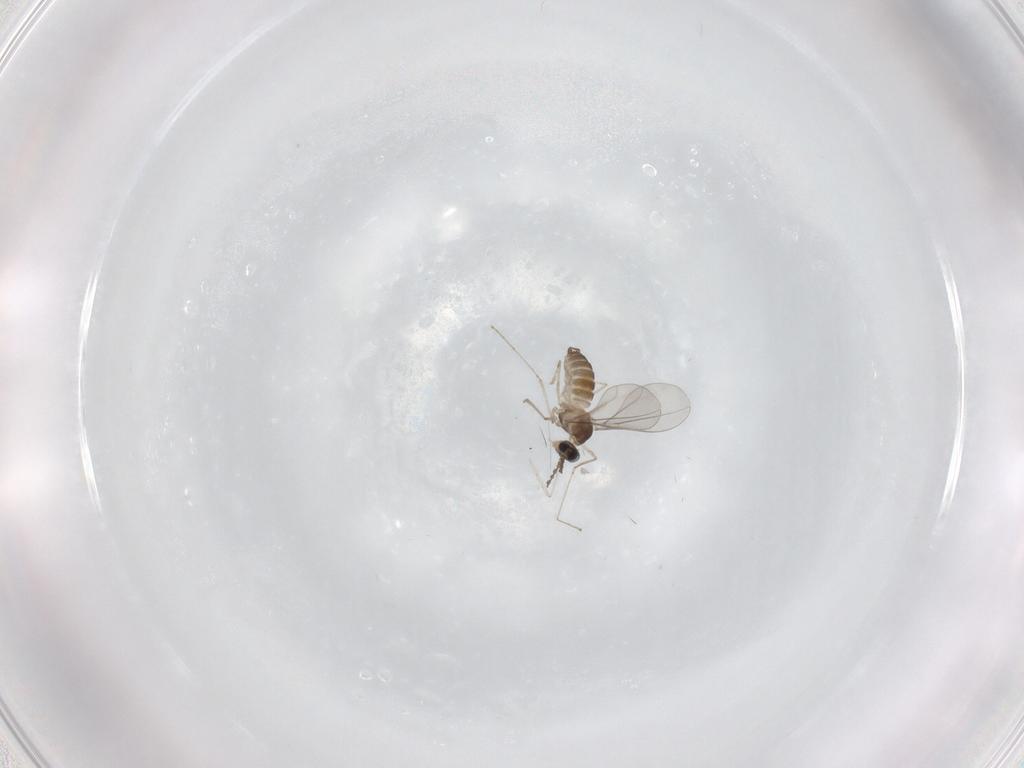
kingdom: Animalia
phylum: Arthropoda
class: Insecta
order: Diptera
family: Cecidomyiidae
